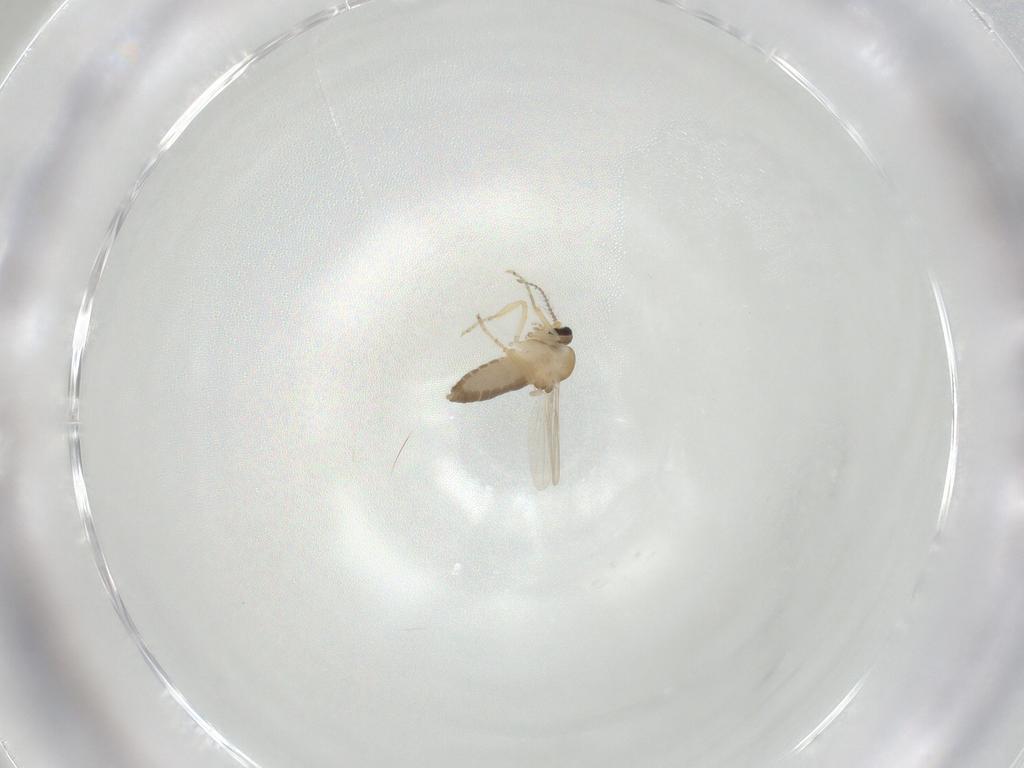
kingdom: Animalia
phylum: Arthropoda
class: Insecta
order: Diptera
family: Ceratopogonidae
